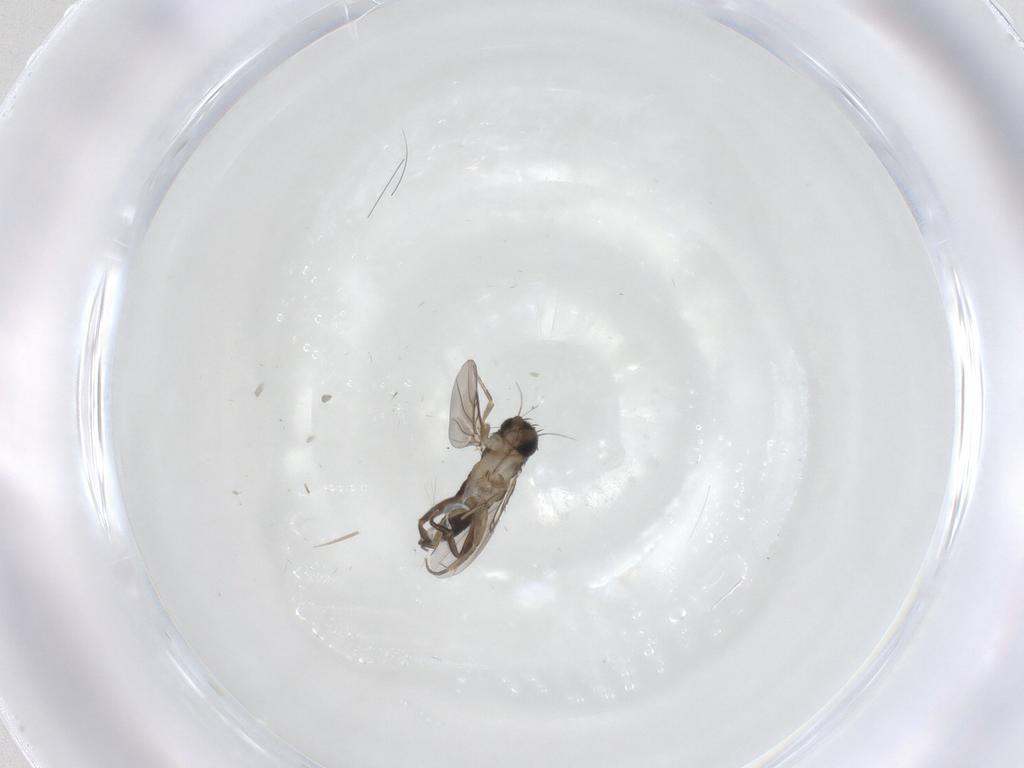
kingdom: Animalia
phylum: Arthropoda
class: Insecta
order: Diptera
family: Phoridae
